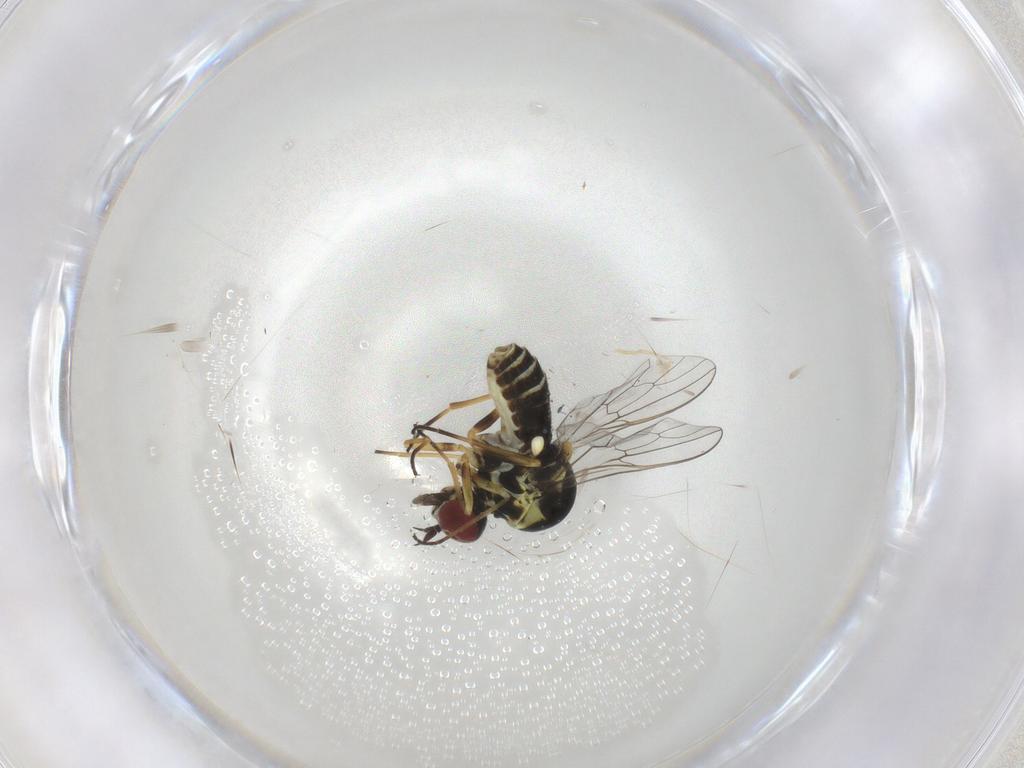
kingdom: Animalia
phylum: Arthropoda
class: Insecta
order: Diptera
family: Bombyliidae
